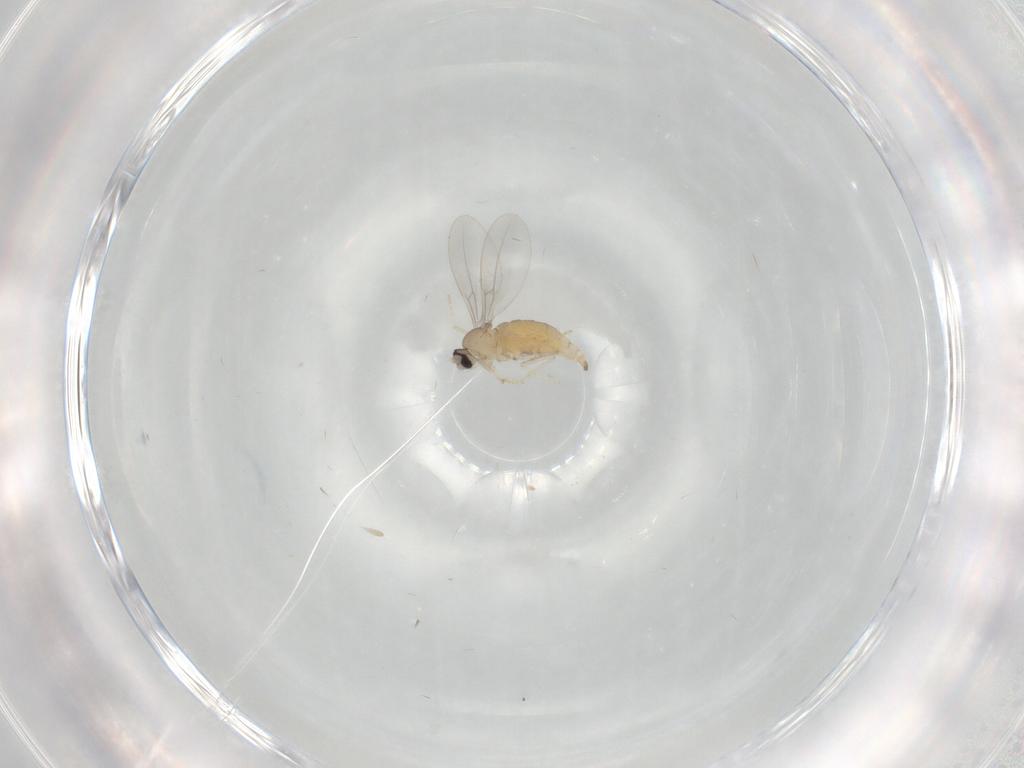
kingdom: Animalia
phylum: Arthropoda
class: Insecta
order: Diptera
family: Cecidomyiidae
